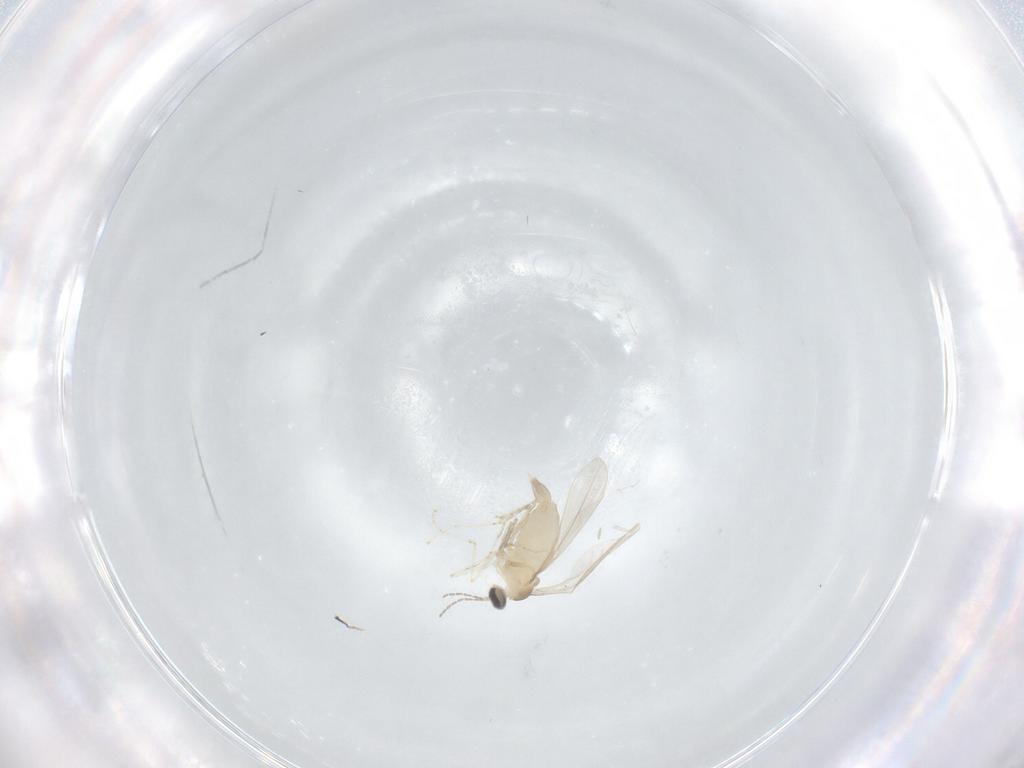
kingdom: Animalia
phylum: Arthropoda
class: Insecta
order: Diptera
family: Cecidomyiidae
